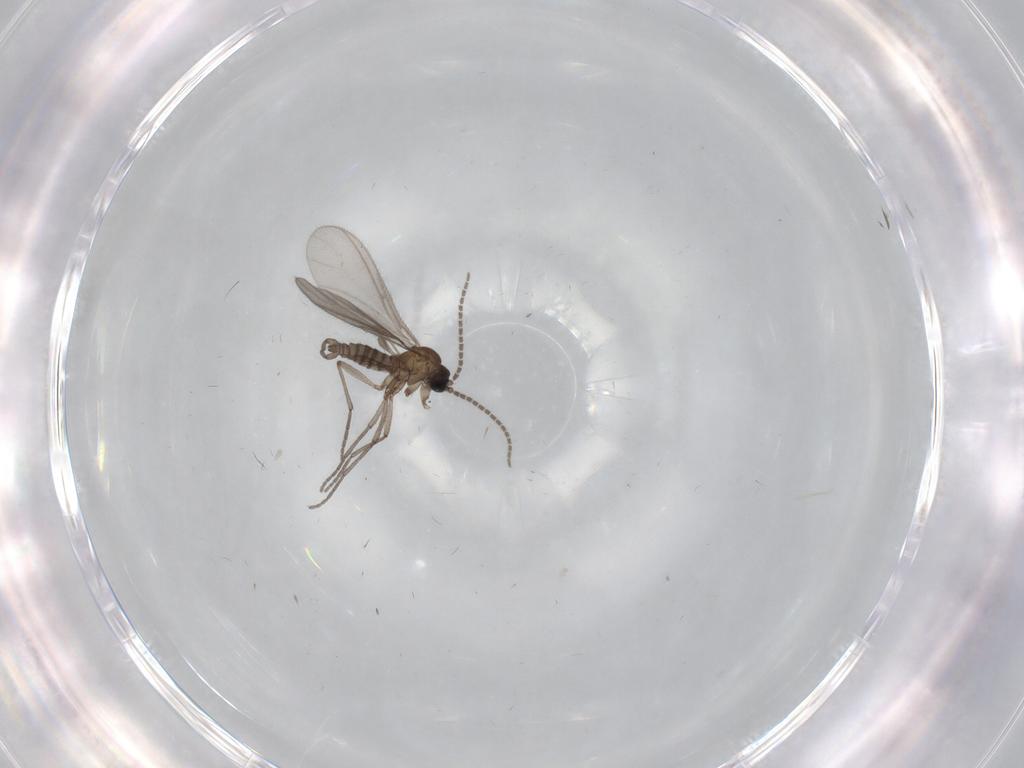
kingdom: Animalia
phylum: Arthropoda
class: Insecta
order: Diptera
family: Sciaridae
